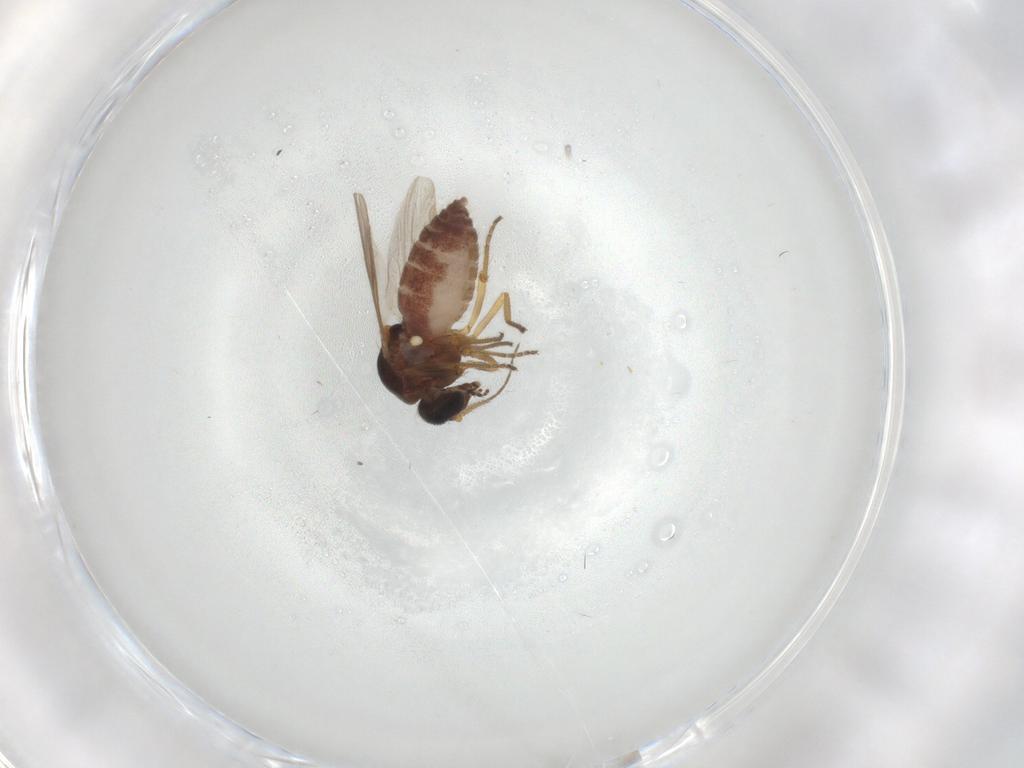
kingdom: Animalia
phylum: Arthropoda
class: Insecta
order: Diptera
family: Phoridae
